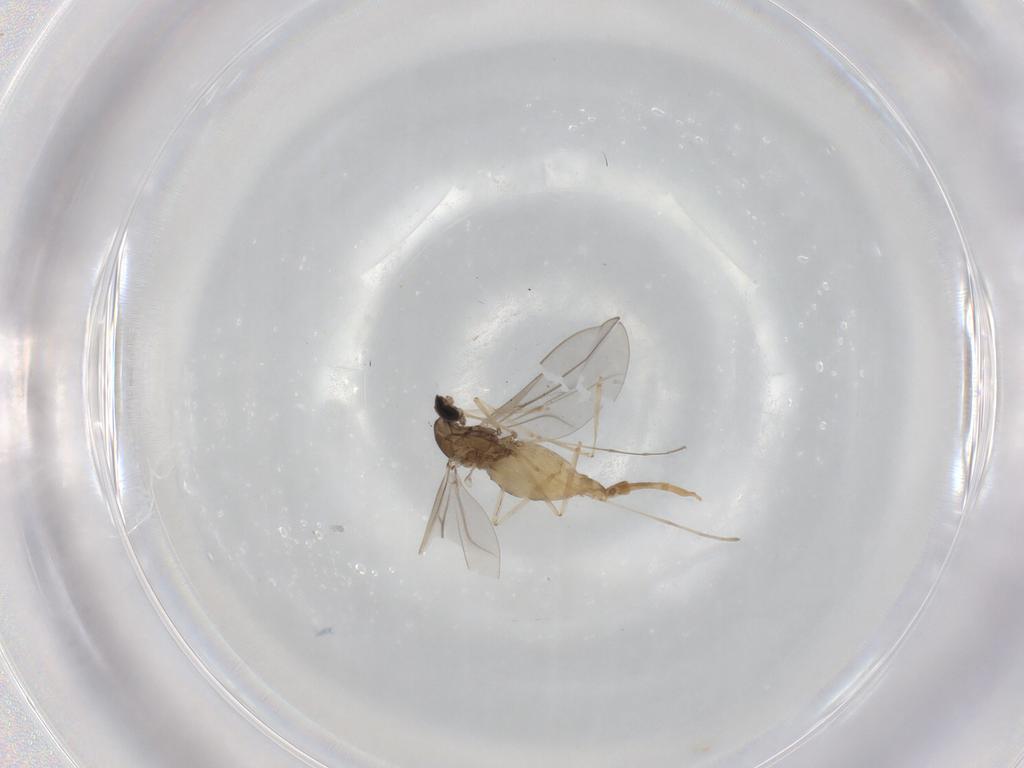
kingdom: Animalia
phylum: Arthropoda
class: Insecta
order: Diptera
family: Cecidomyiidae
